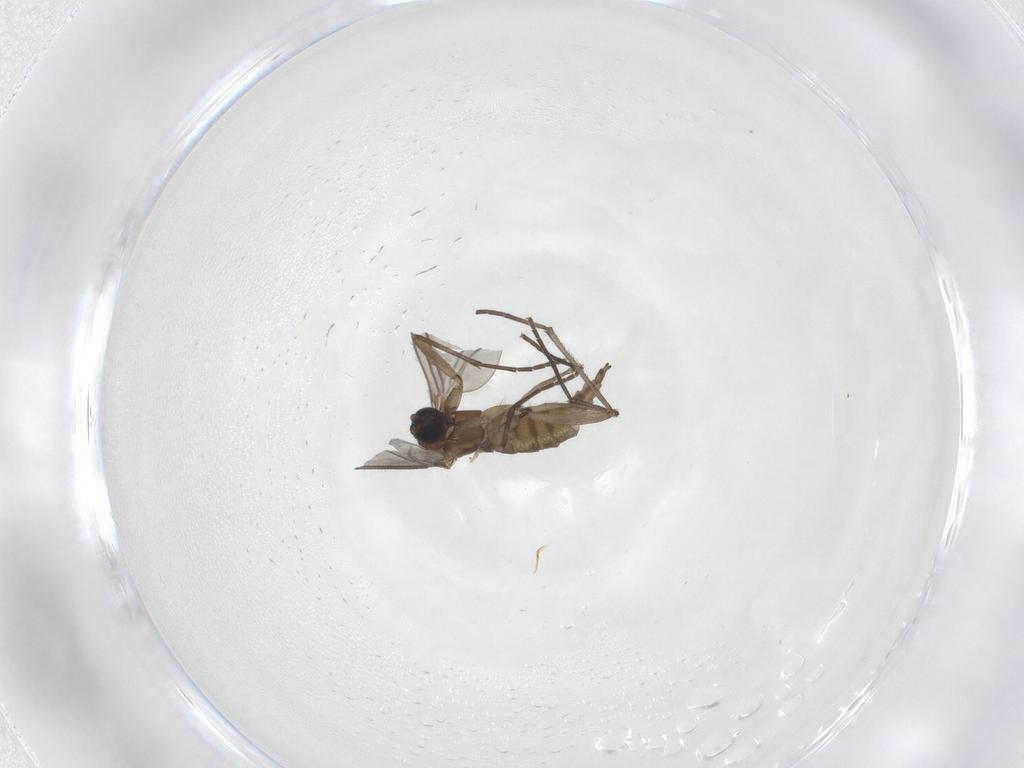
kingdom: Animalia
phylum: Arthropoda
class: Insecta
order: Diptera
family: Sciaridae
